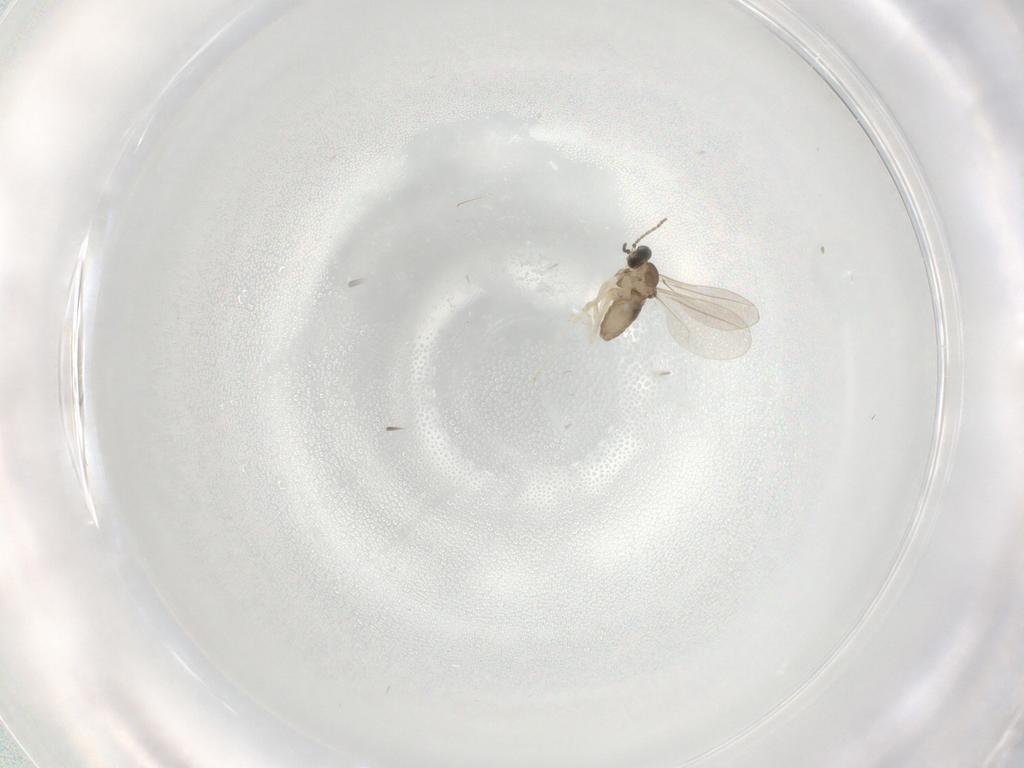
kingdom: Animalia
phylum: Arthropoda
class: Insecta
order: Diptera
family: Cecidomyiidae
